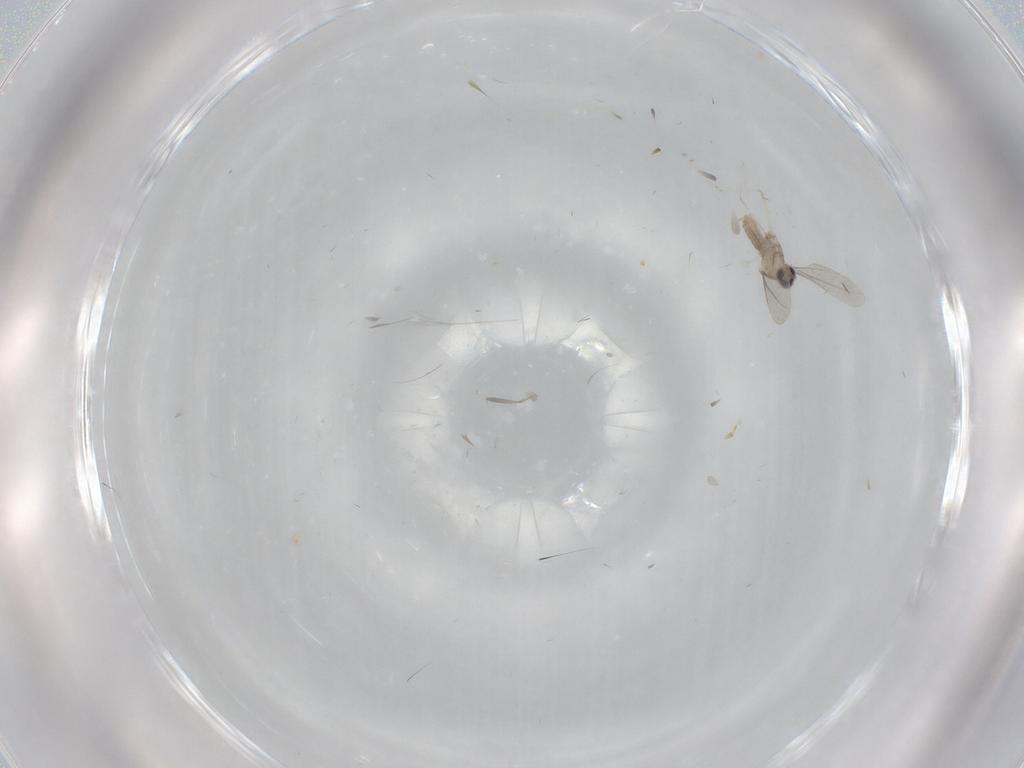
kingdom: Animalia
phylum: Arthropoda
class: Insecta
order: Diptera
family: Cecidomyiidae
